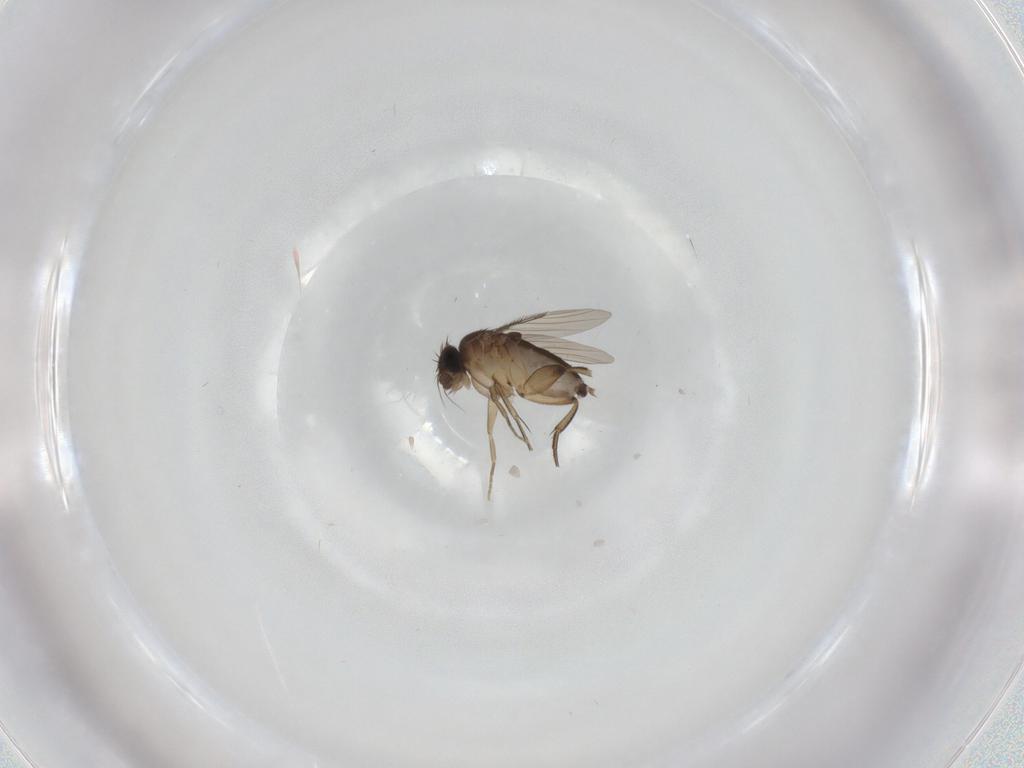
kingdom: Animalia
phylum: Arthropoda
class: Insecta
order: Diptera
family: Phoridae
